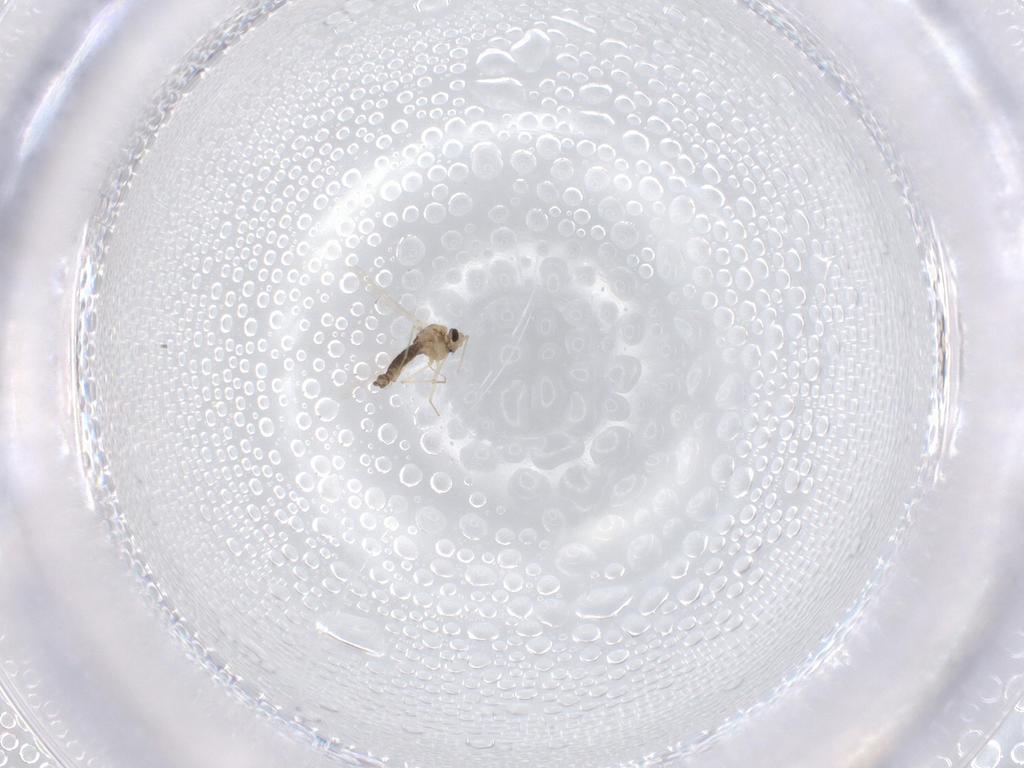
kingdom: Animalia
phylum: Arthropoda
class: Insecta
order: Diptera
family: Chironomidae
